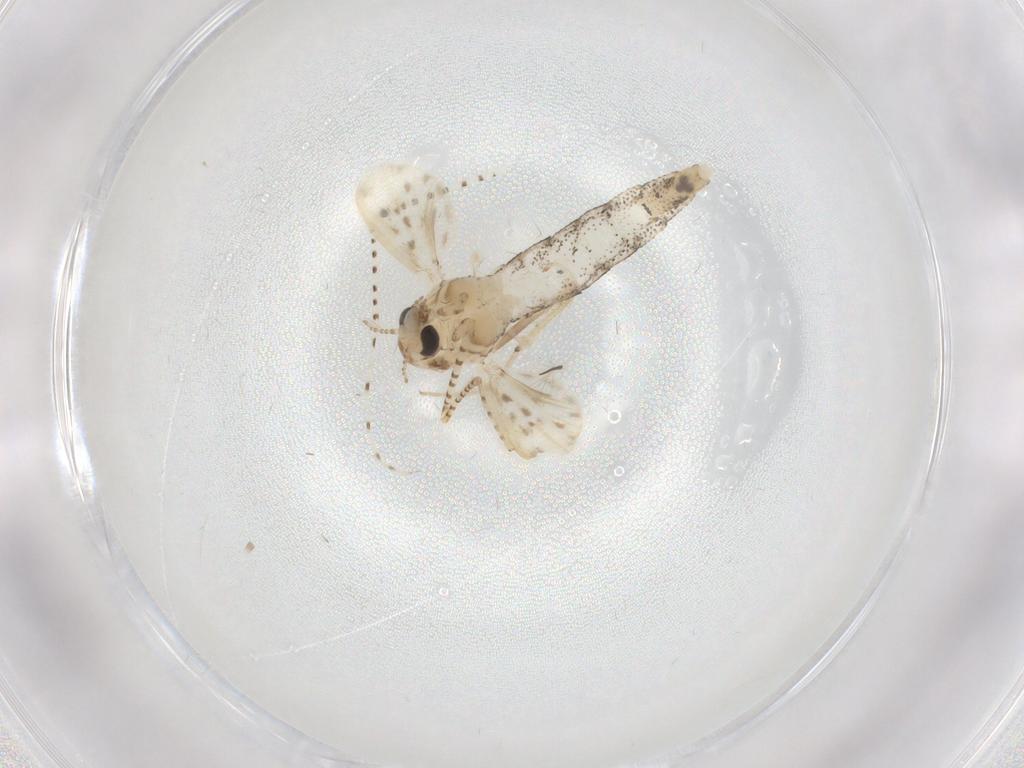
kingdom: Animalia
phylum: Arthropoda
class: Insecta
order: Diptera
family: Chaoboridae
